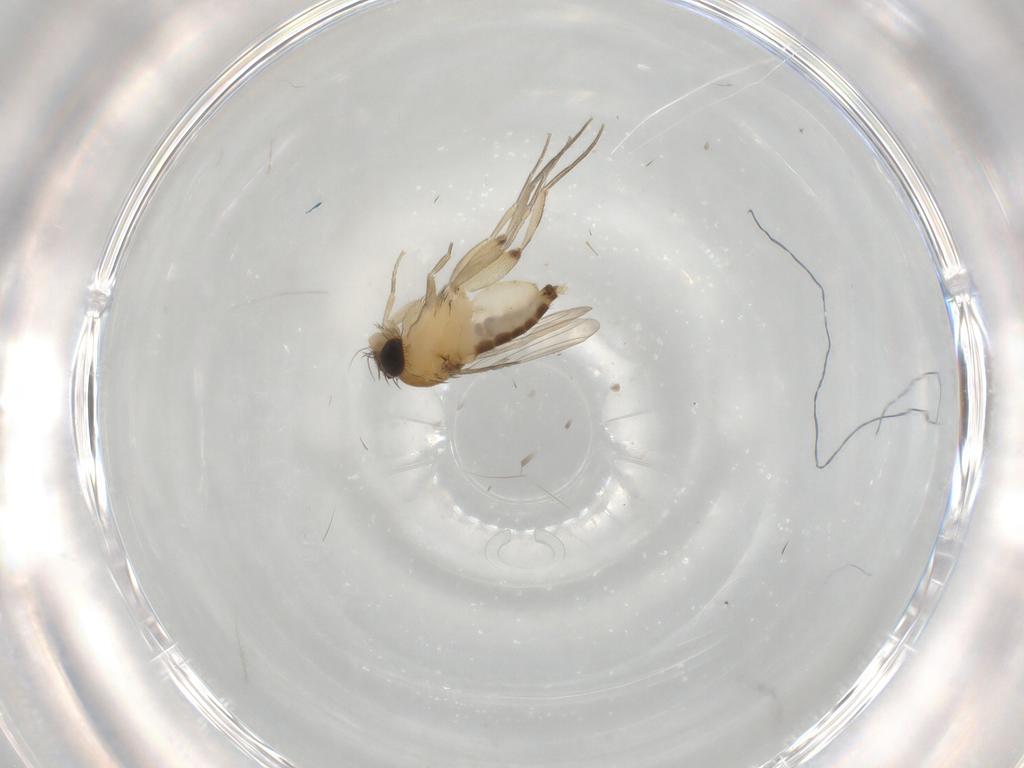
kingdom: Animalia
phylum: Arthropoda
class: Insecta
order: Diptera
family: Phoridae
